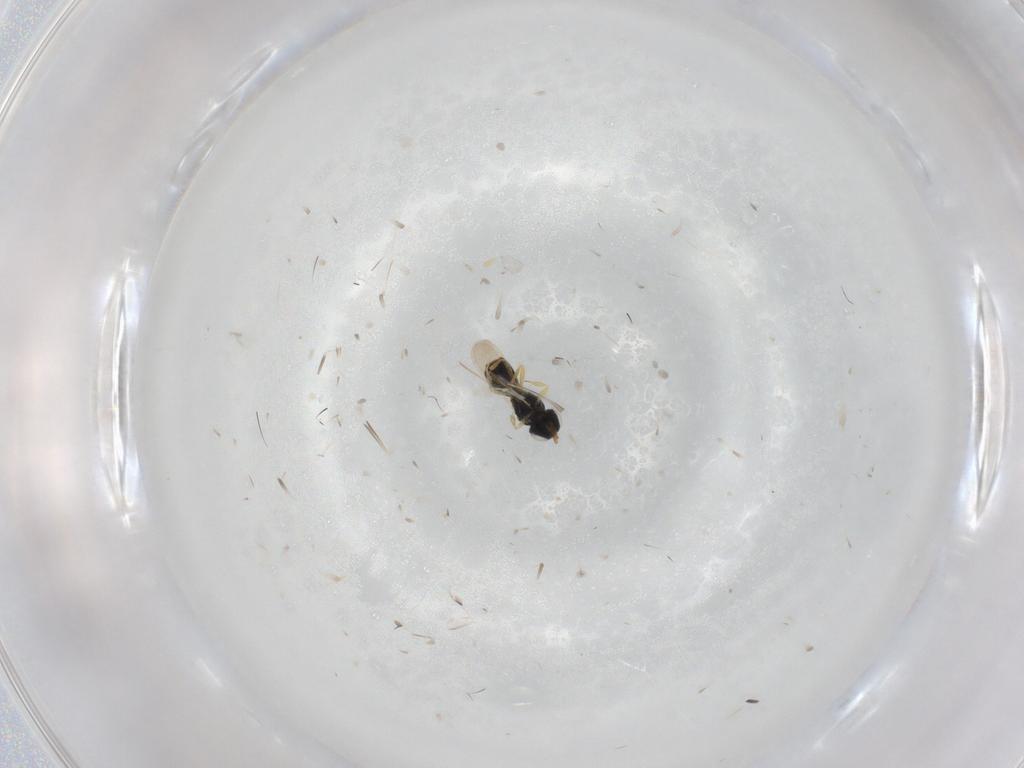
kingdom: Animalia
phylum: Arthropoda
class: Insecta
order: Hymenoptera
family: Scelionidae
